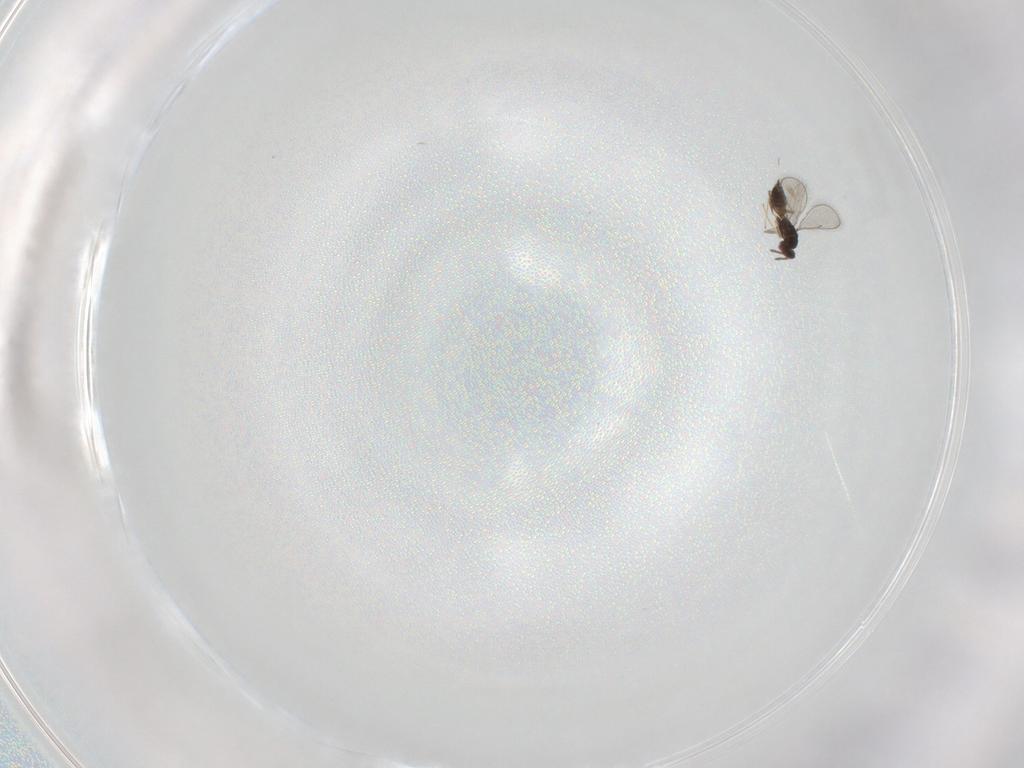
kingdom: Animalia
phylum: Arthropoda
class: Insecta
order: Hymenoptera
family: Eulophidae
